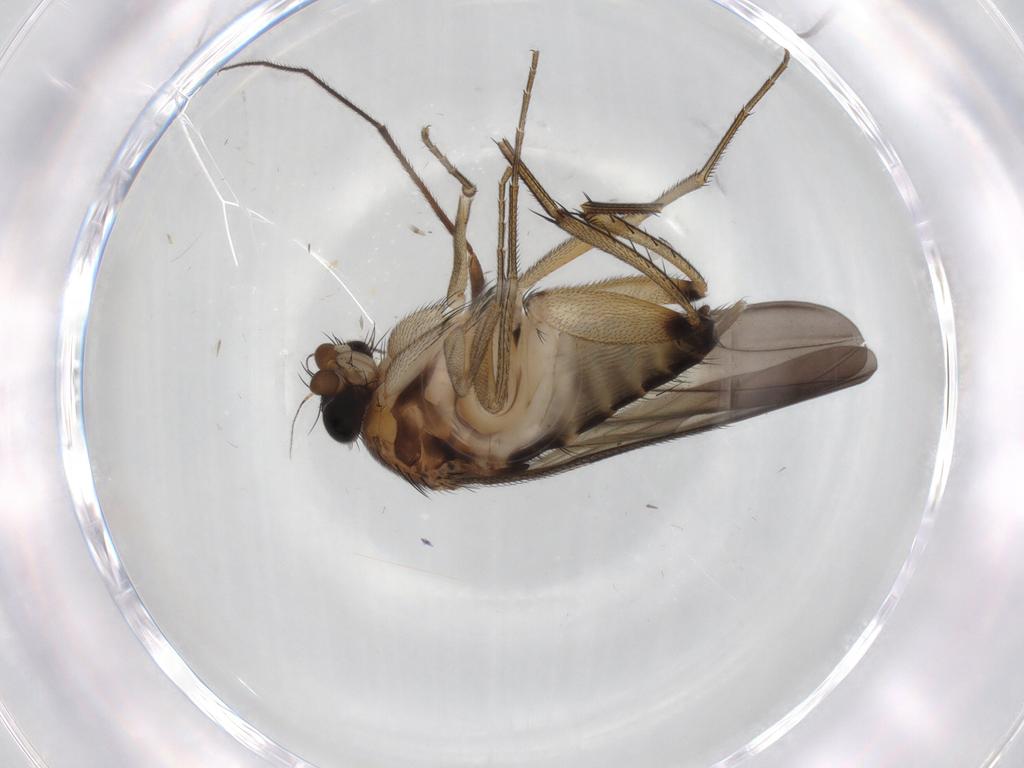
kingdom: Animalia
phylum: Arthropoda
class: Insecta
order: Diptera
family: Phoridae
